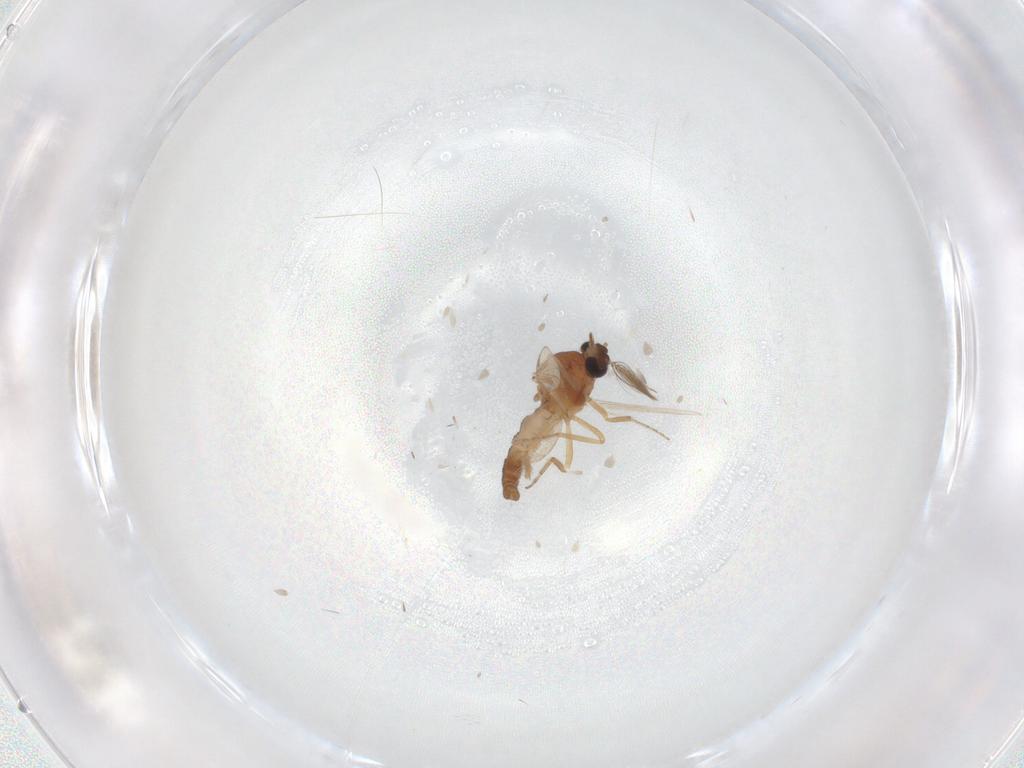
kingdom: Animalia
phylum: Arthropoda
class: Insecta
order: Diptera
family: Ceratopogonidae
